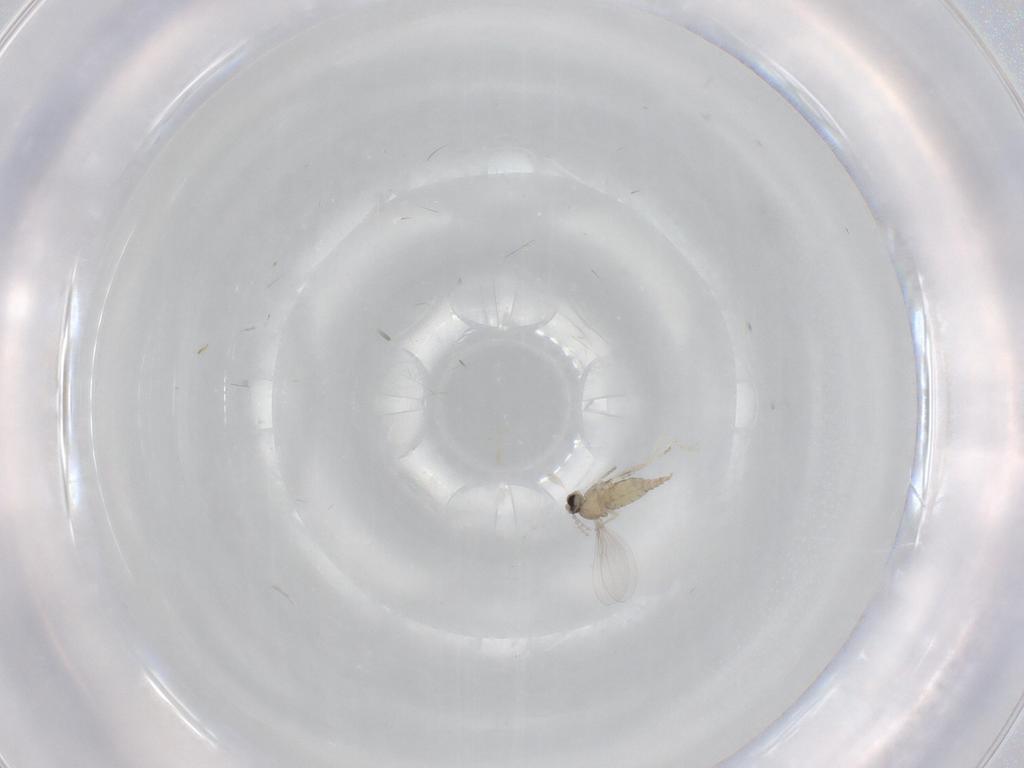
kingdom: Animalia
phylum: Arthropoda
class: Insecta
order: Diptera
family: Cecidomyiidae
